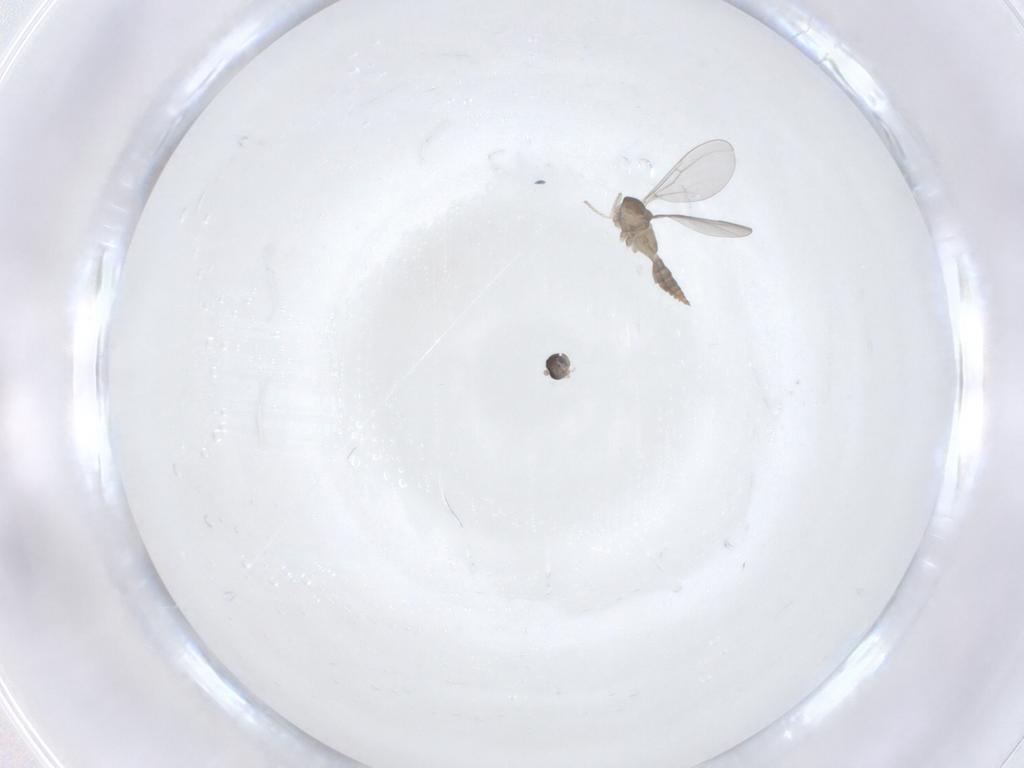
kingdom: Animalia
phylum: Arthropoda
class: Insecta
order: Diptera
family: Cecidomyiidae
